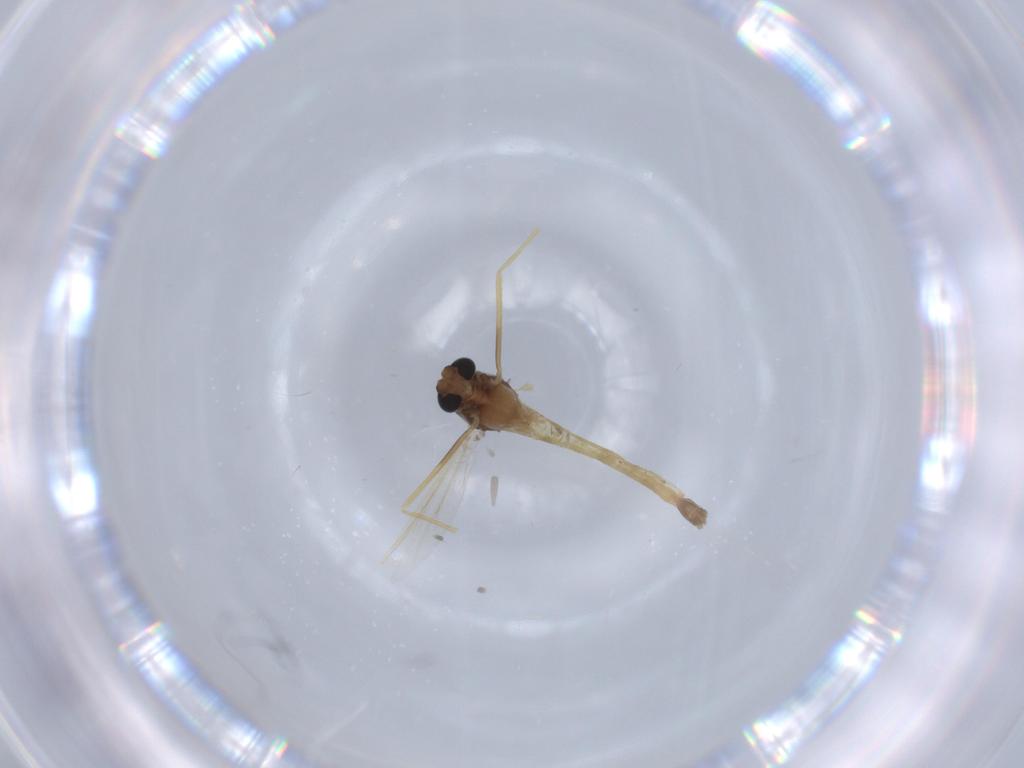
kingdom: Animalia
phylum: Arthropoda
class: Insecta
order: Diptera
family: Chironomidae
